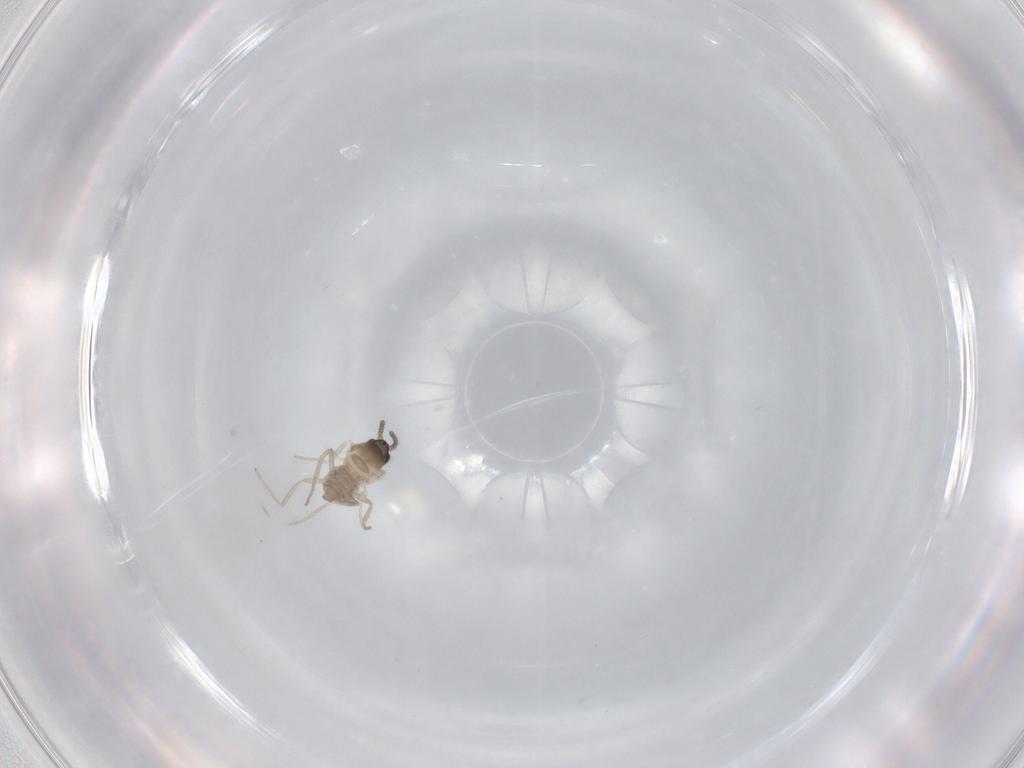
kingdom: Animalia
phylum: Arthropoda
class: Insecta
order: Diptera
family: Cecidomyiidae
